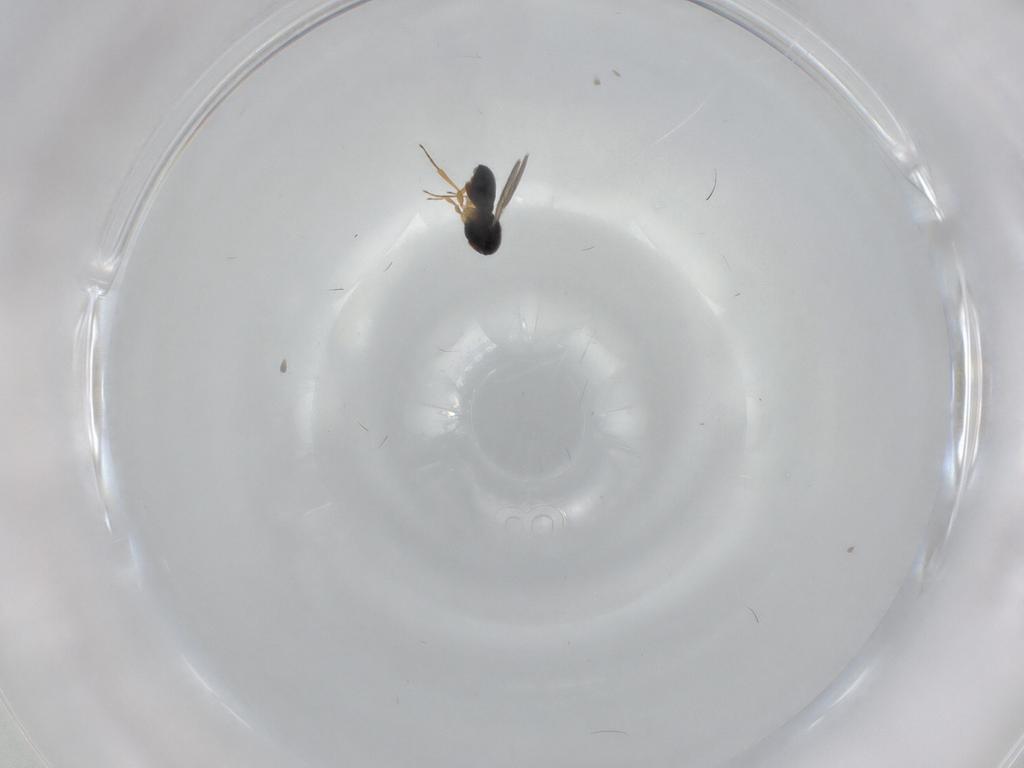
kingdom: Animalia
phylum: Arthropoda
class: Insecta
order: Hymenoptera
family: Scelionidae
